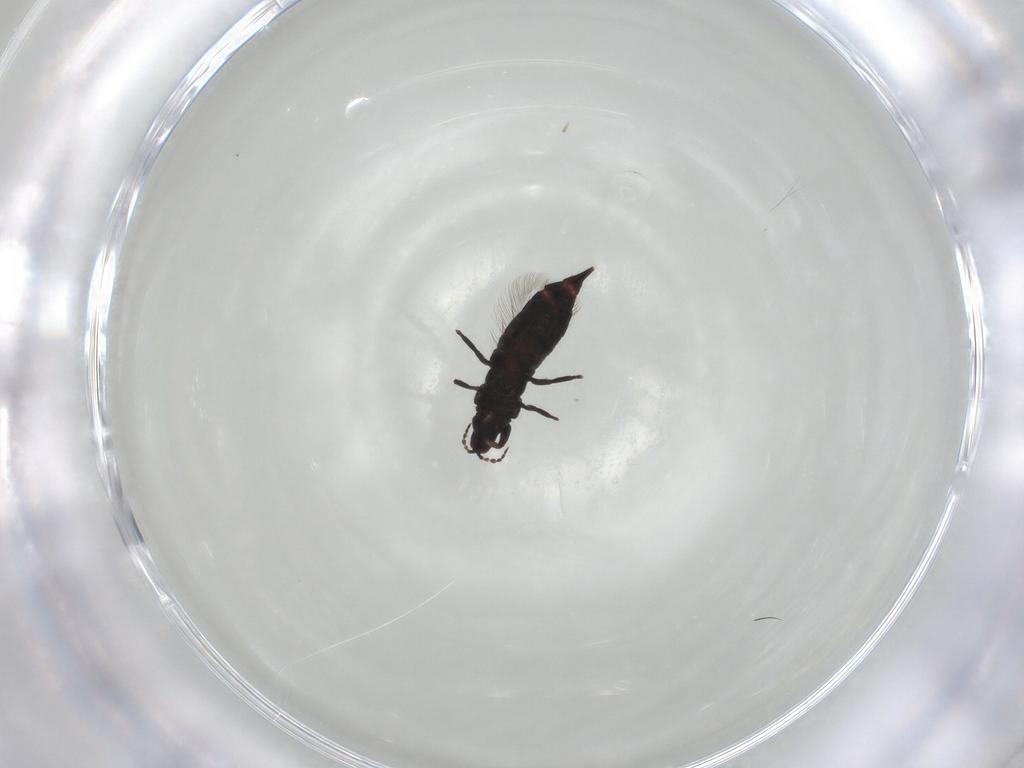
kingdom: Animalia
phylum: Arthropoda
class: Insecta
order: Thysanoptera
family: Phlaeothripidae
